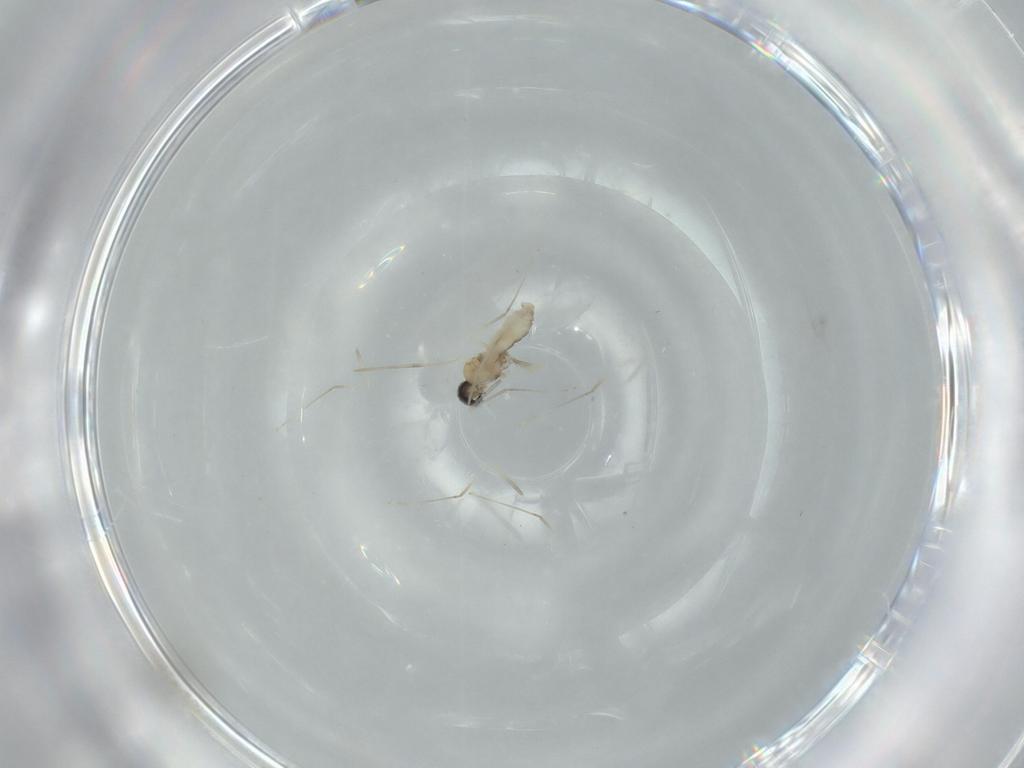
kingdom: Animalia
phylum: Arthropoda
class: Insecta
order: Diptera
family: Cecidomyiidae
